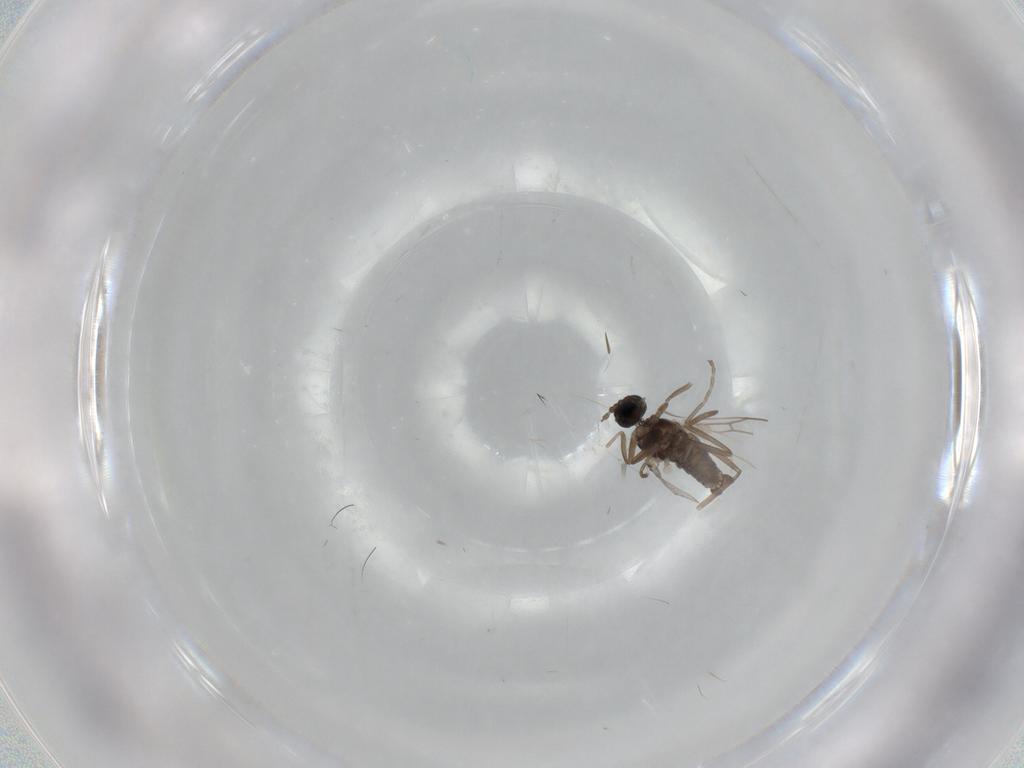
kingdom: Animalia
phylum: Arthropoda
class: Insecta
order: Diptera
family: Cecidomyiidae
